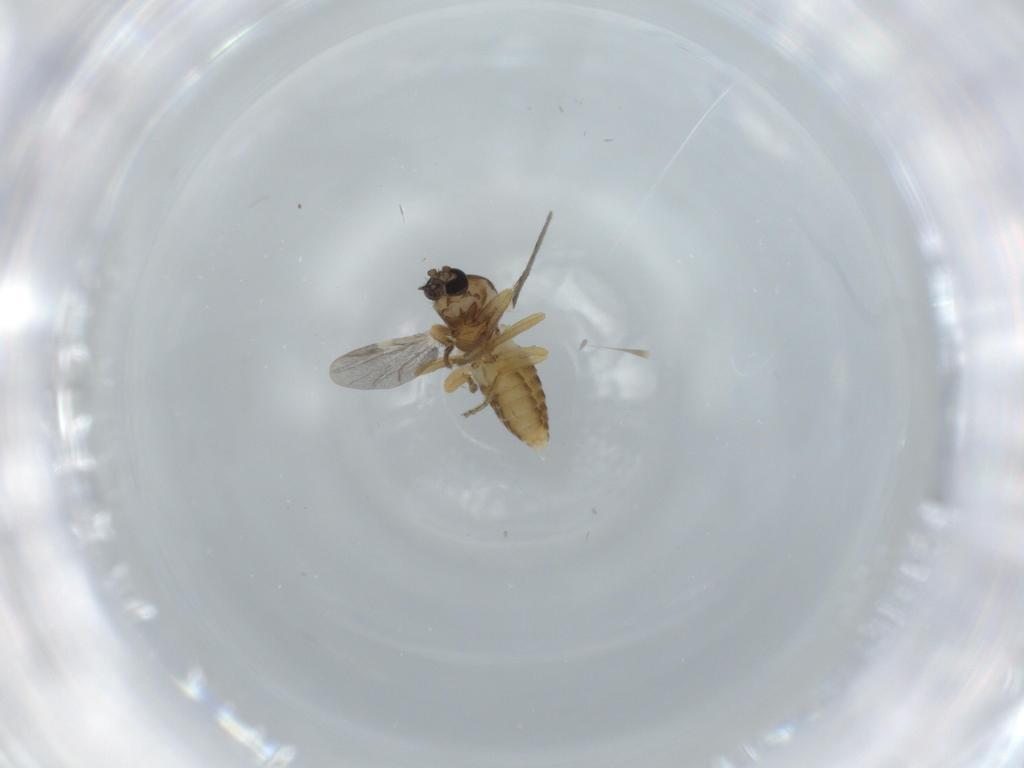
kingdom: Animalia
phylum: Arthropoda
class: Insecta
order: Diptera
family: Ceratopogonidae
